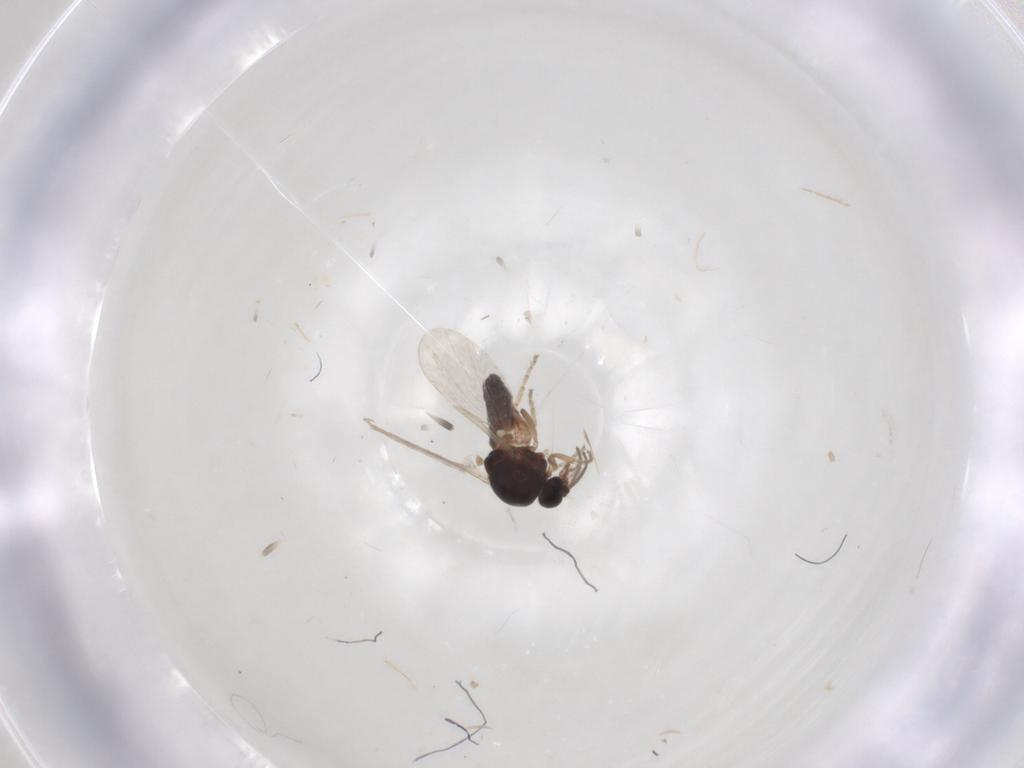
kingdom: Animalia
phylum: Arthropoda
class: Insecta
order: Diptera
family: Ceratopogonidae
